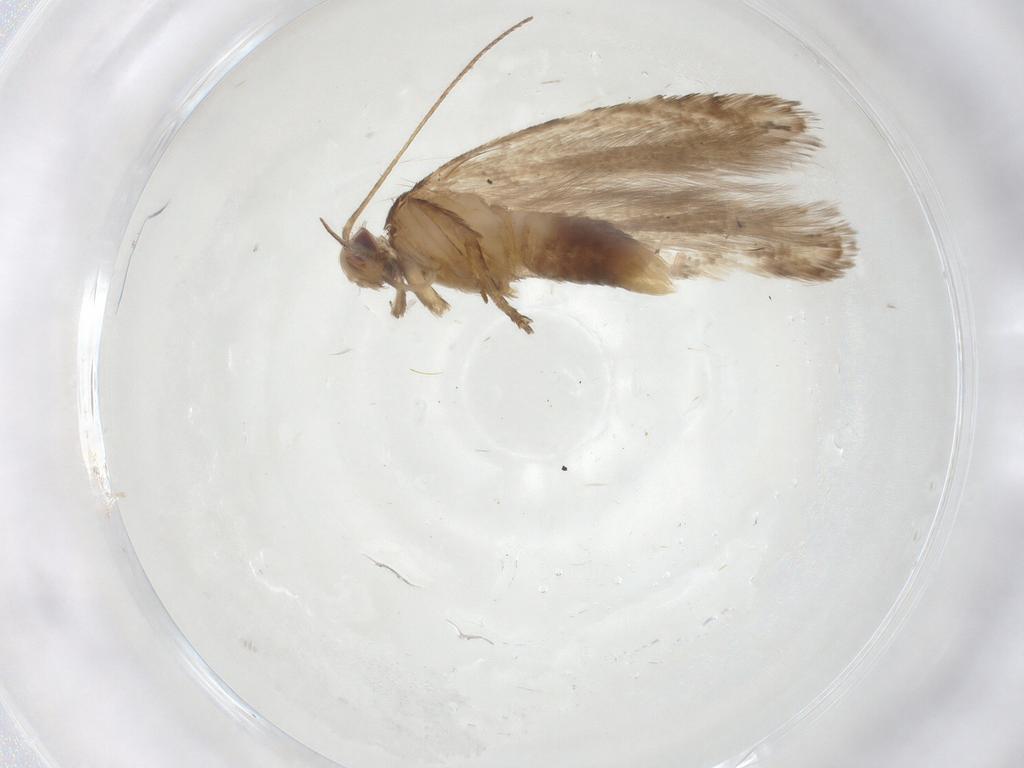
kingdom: Animalia
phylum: Arthropoda
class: Insecta
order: Lepidoptera
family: Gelechiidae
